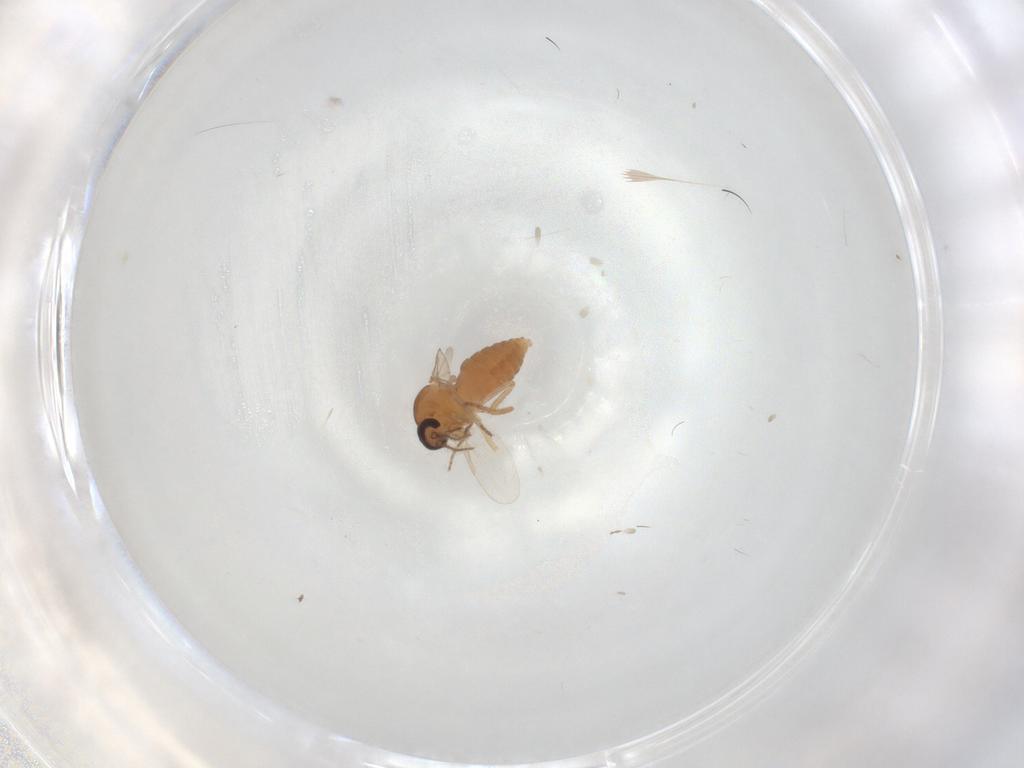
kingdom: Animalia
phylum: Arthropoda
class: Insecta
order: Diptera
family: Ceratopogonidae
